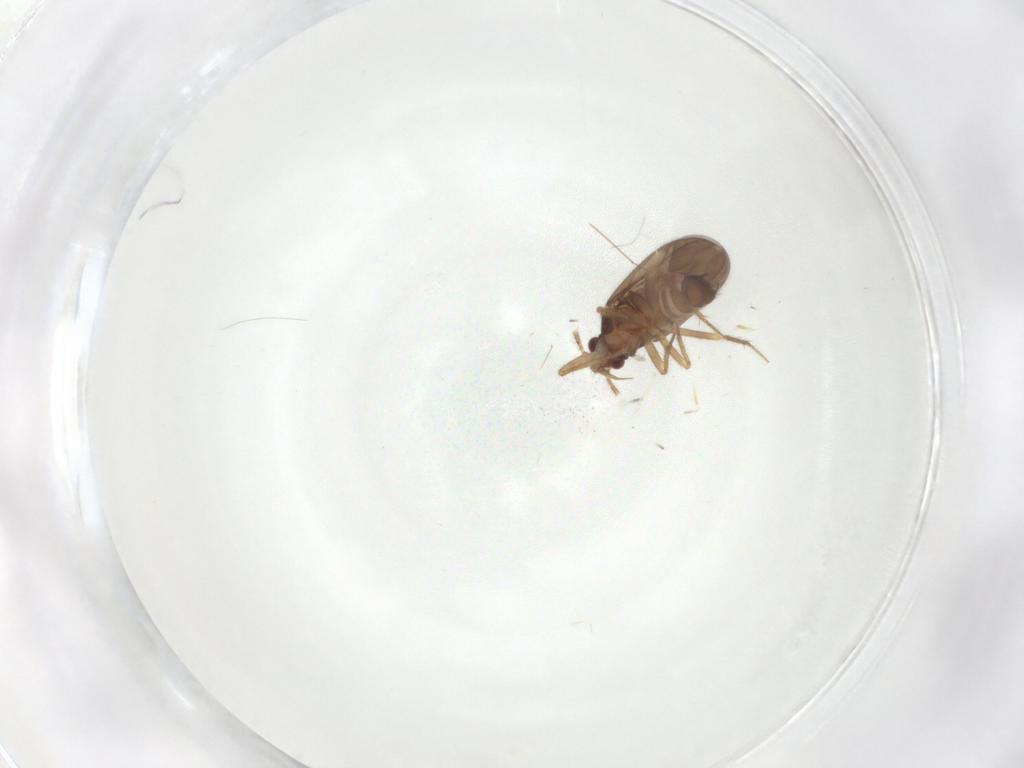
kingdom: Animalia
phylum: Arthropoda
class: Insecta
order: Hemiptera
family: Ceratocombidae
